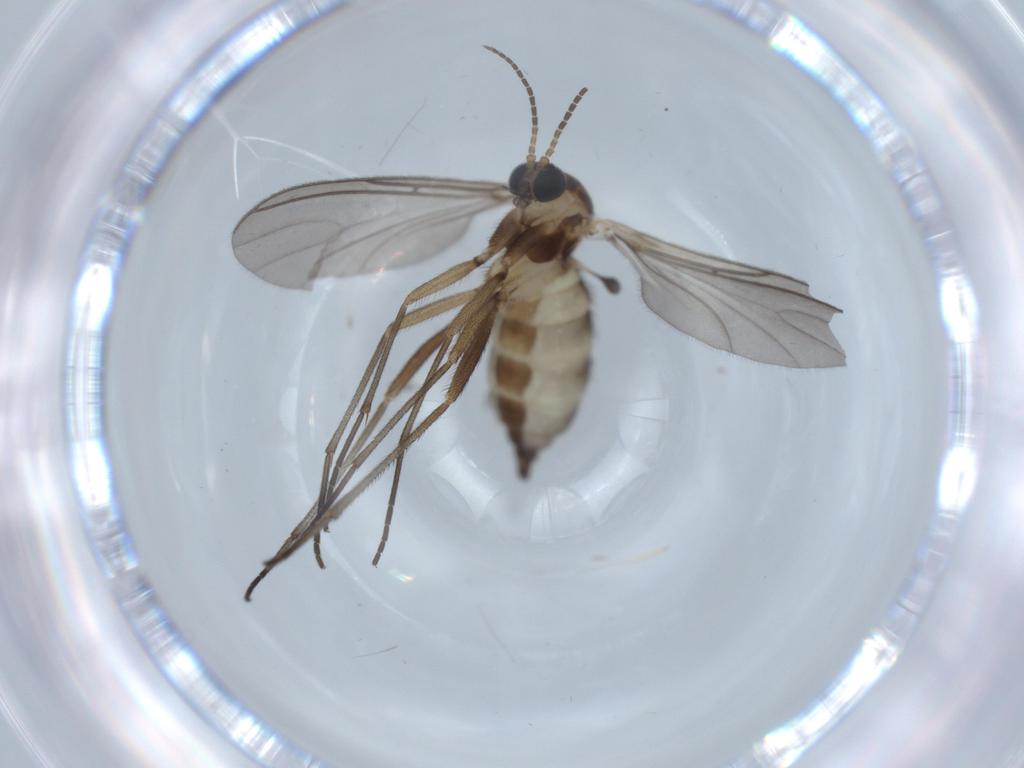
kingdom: Animalia
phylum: Arthropoda
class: Insecta
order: Diptera
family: Sciaridae
